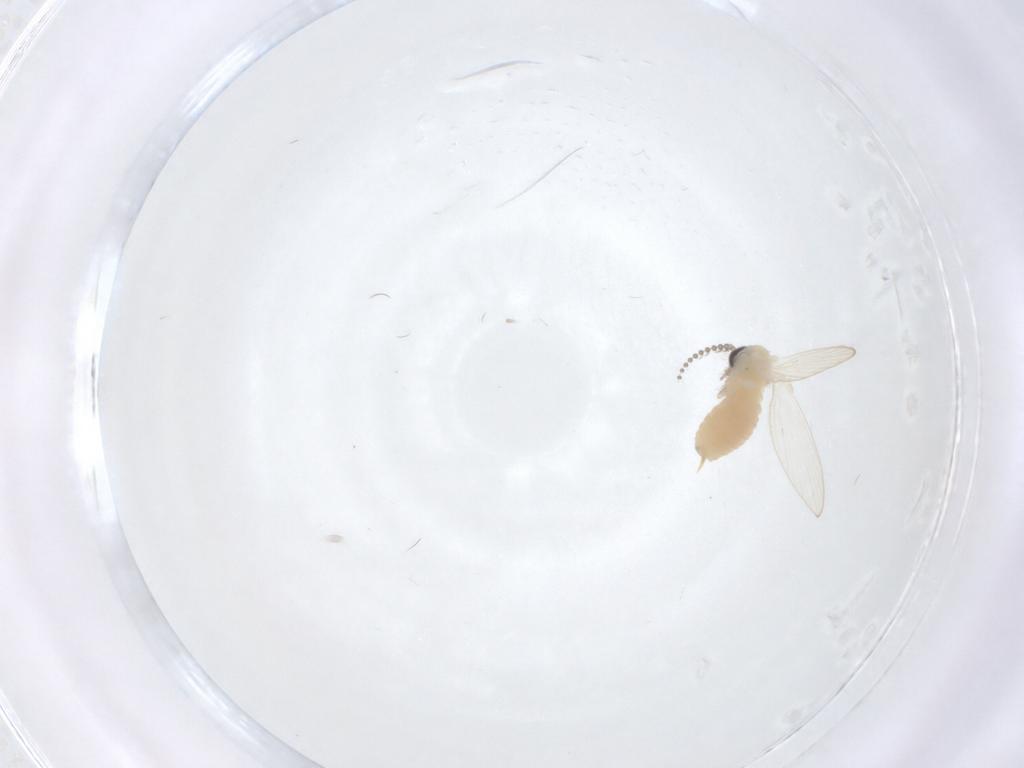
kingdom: Animalia
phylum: Arthropoda
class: Insecta
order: Diptera
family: Psychodidae
